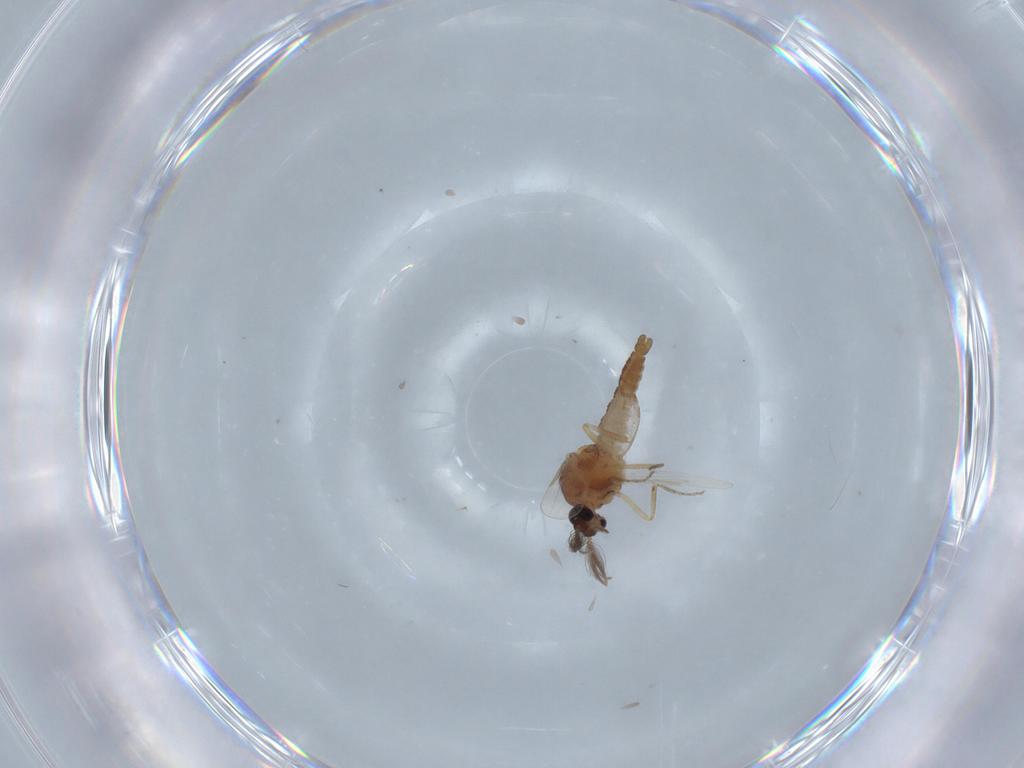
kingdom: Animalia
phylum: Arthropoda
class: Insecta
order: Diptera
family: Ceratopogonidae
